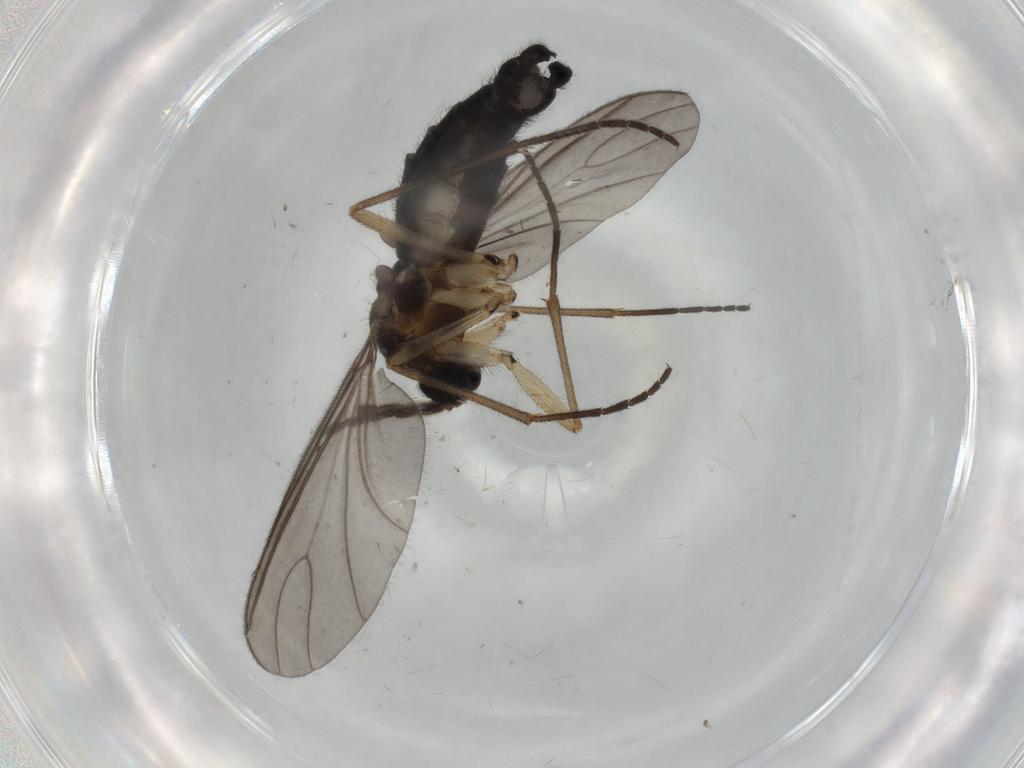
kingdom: Animalia
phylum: Arthropoda
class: Insecta
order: Diptera
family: Sciaridae
